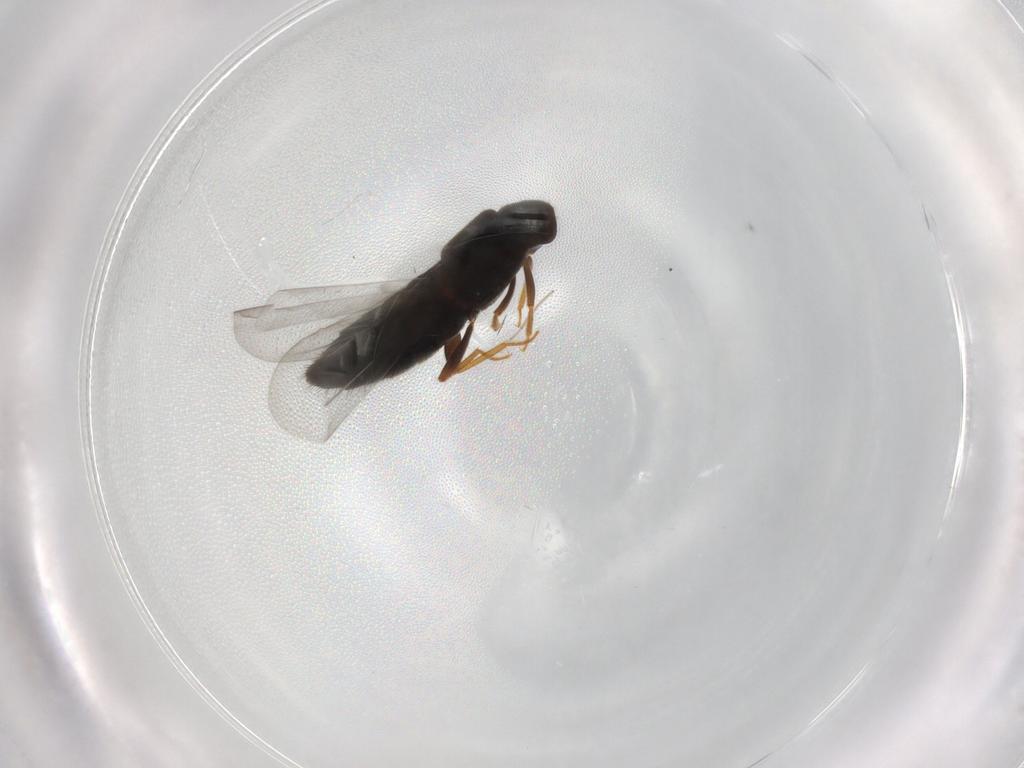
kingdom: Animalia
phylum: Arthropoda
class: Insecta
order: Coleoptera
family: Staphylinidae
